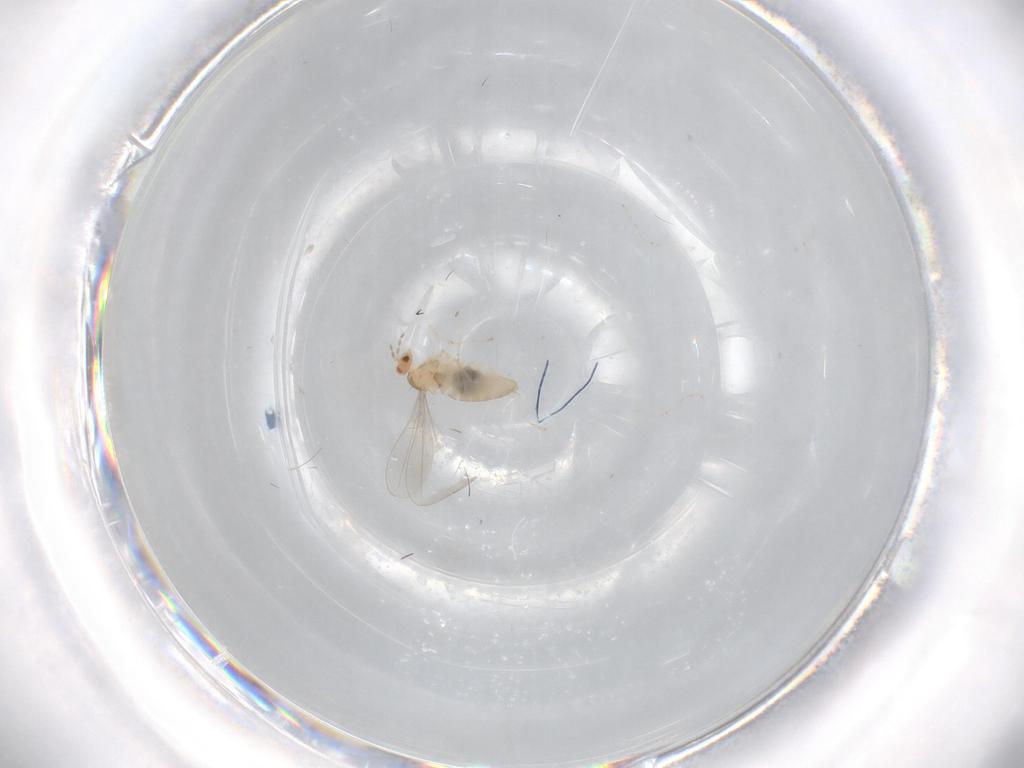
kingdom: Animalia
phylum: Arthropoda
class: Insecta
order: Diptera
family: Cecidomyiidae
